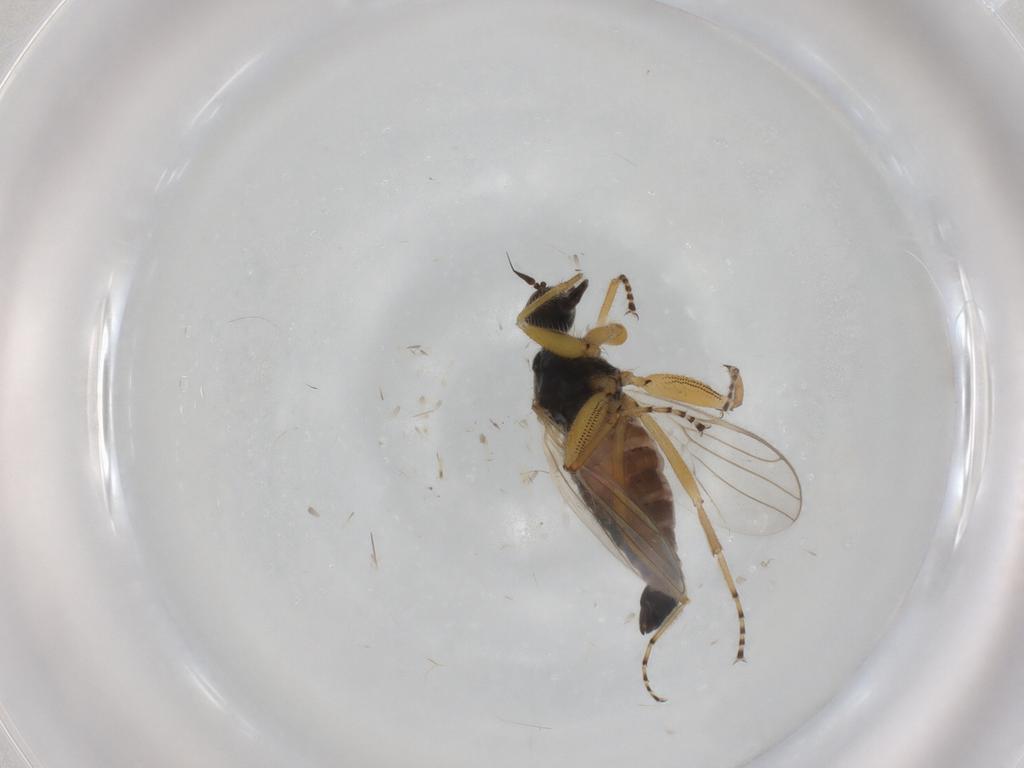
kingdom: Animalia
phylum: Arthropoda
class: Insecta
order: Diptera
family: Hybotidae
